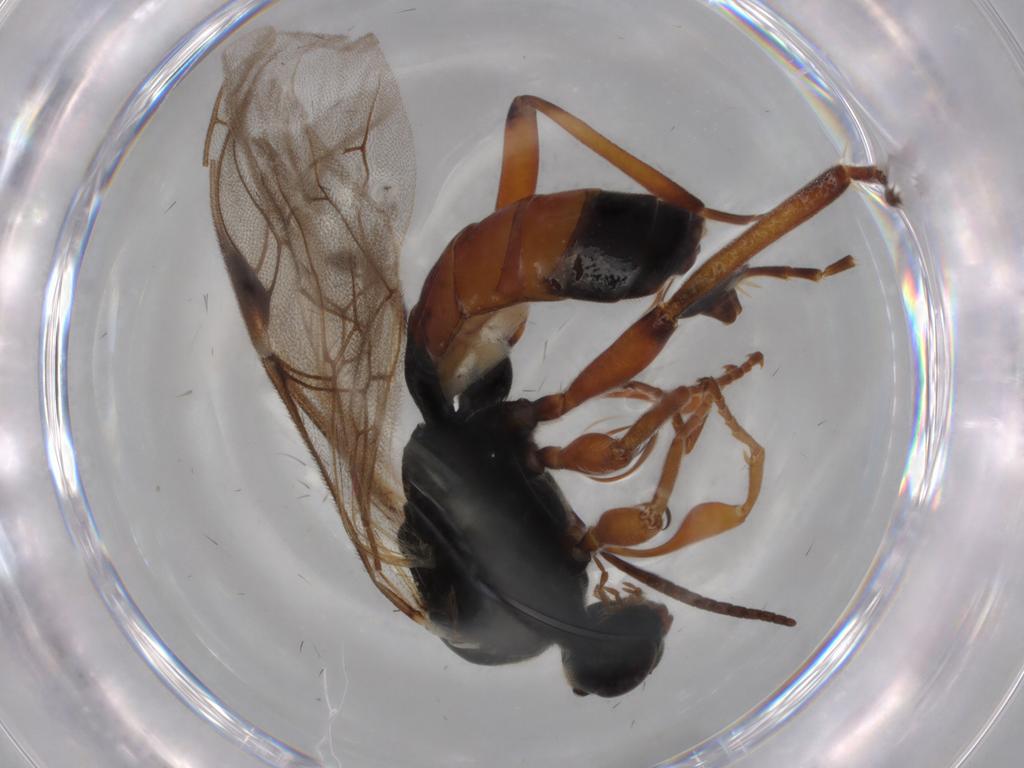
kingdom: Animalia
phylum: Arthropoda
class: Insecta
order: Hymenoptera
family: Ichneumonidae
